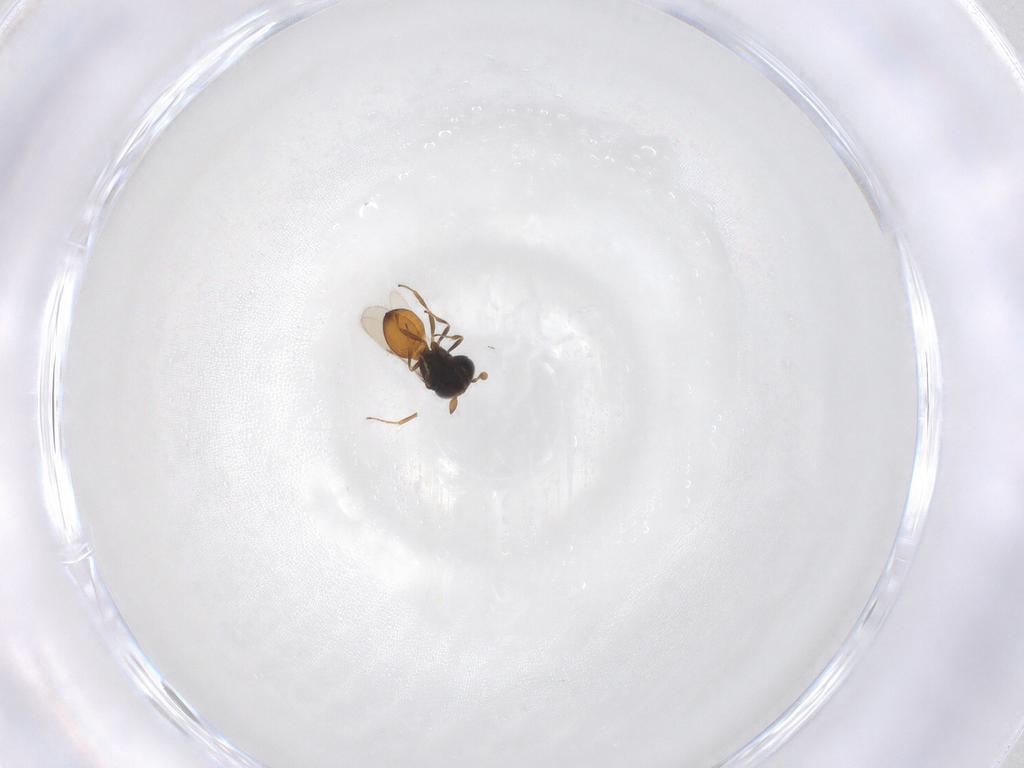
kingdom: Animalia
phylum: Arthropoda
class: Insecta
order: Hymenoptera
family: Scelionidae
